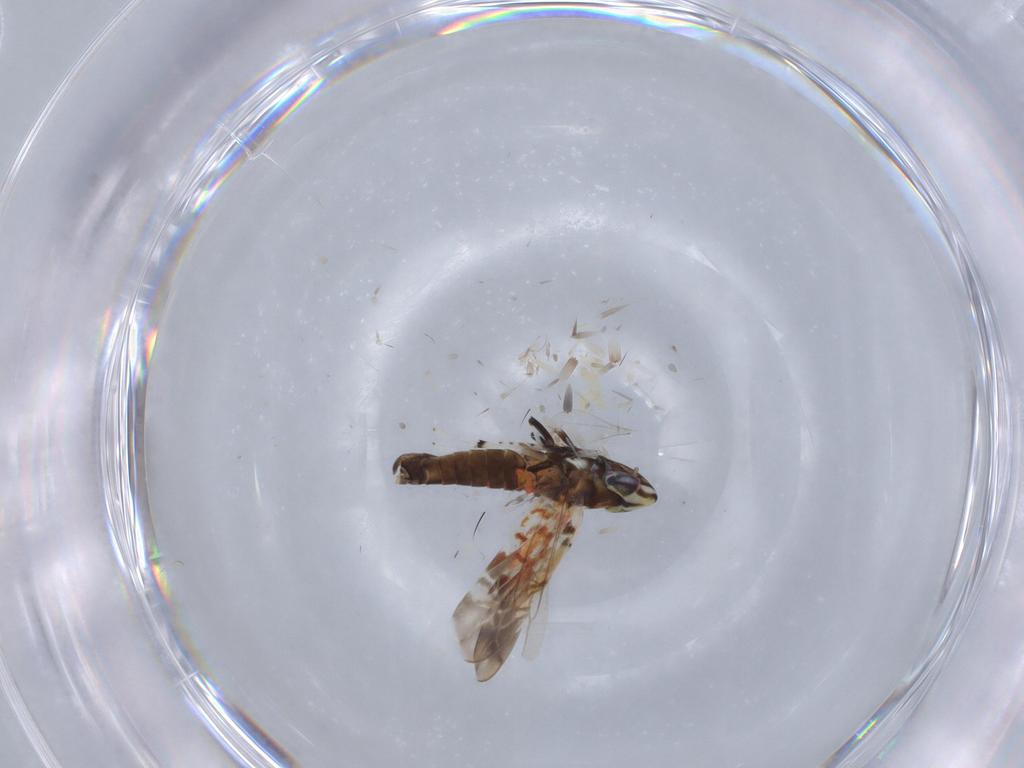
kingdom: Animalia
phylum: Arthropoda
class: Insecta
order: Hemiptera
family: Cicadellidae
